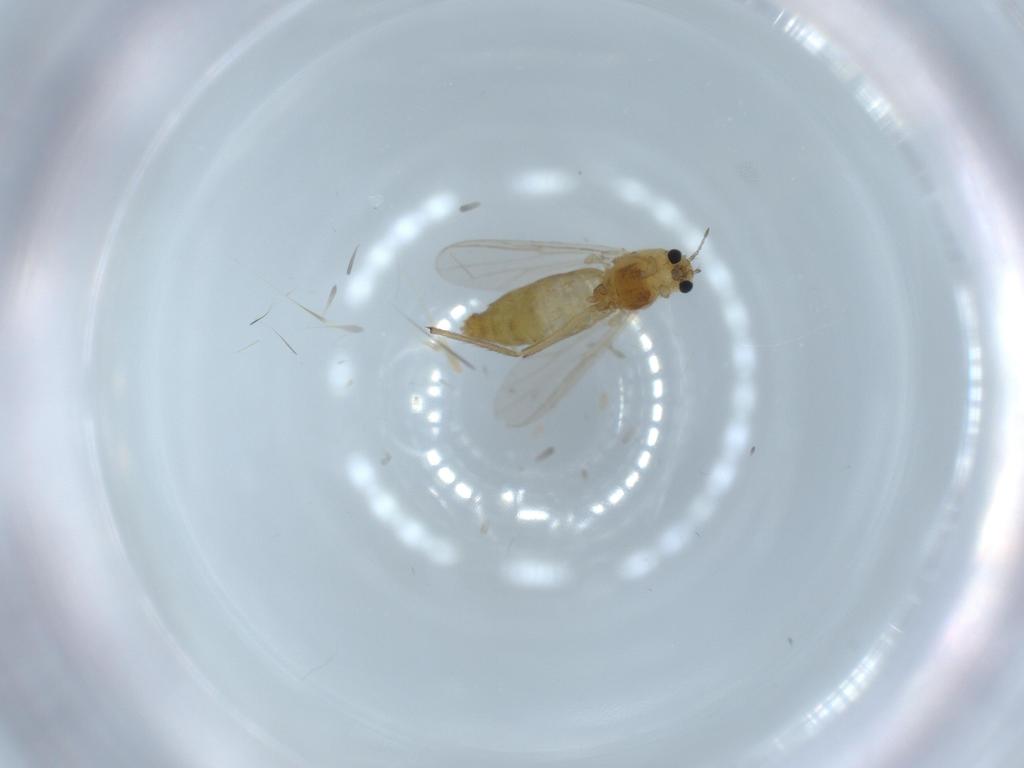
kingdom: Animalia
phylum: Arthropoda
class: Insecta
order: Diptera
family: Chironomidae
